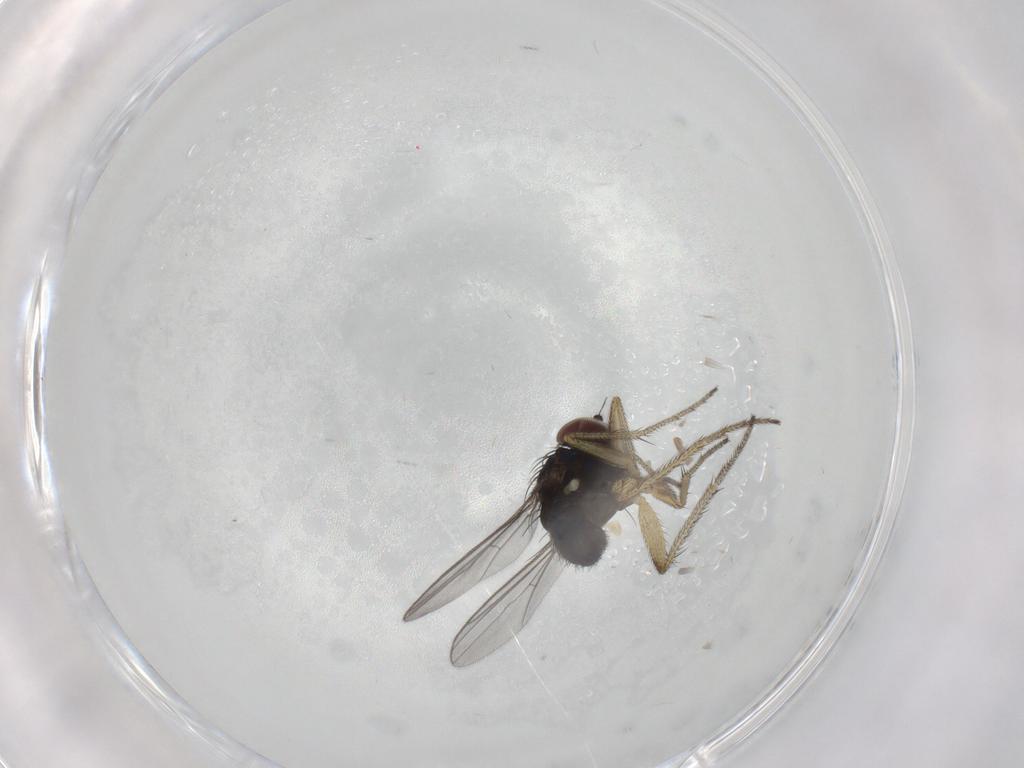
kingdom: Animalia
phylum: Arthropoda
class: Insecta
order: Diptera
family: Dolichopodidae
